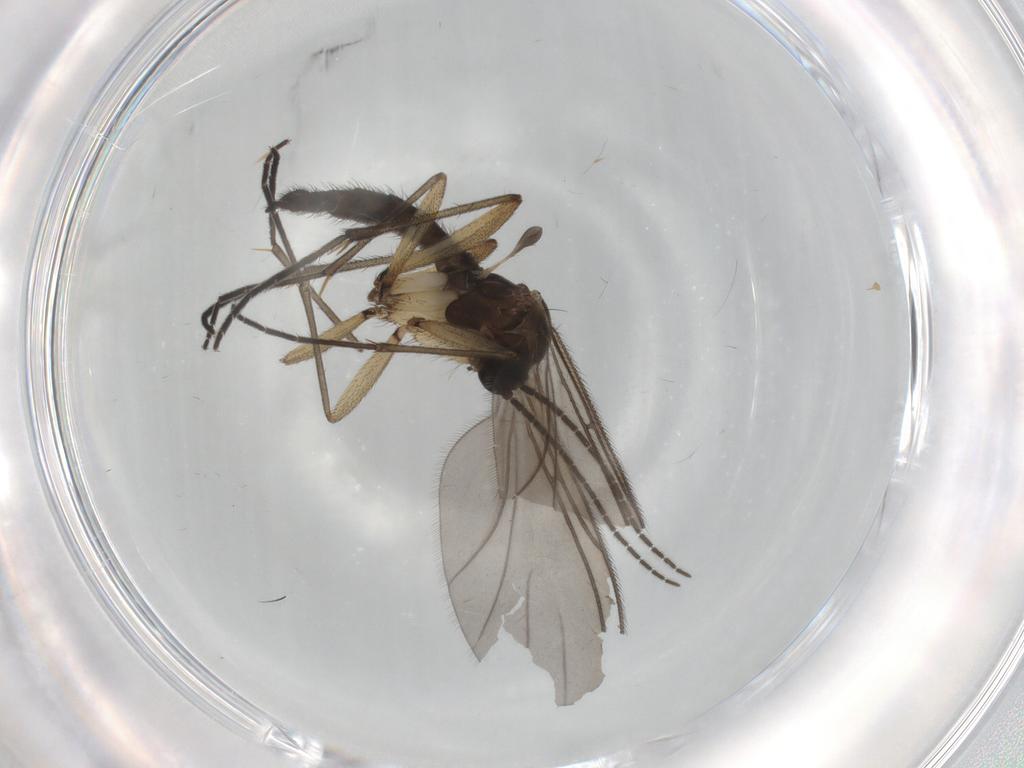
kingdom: Animalia
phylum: Arthropoda
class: Insecta
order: Diptera
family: Sciaridae
